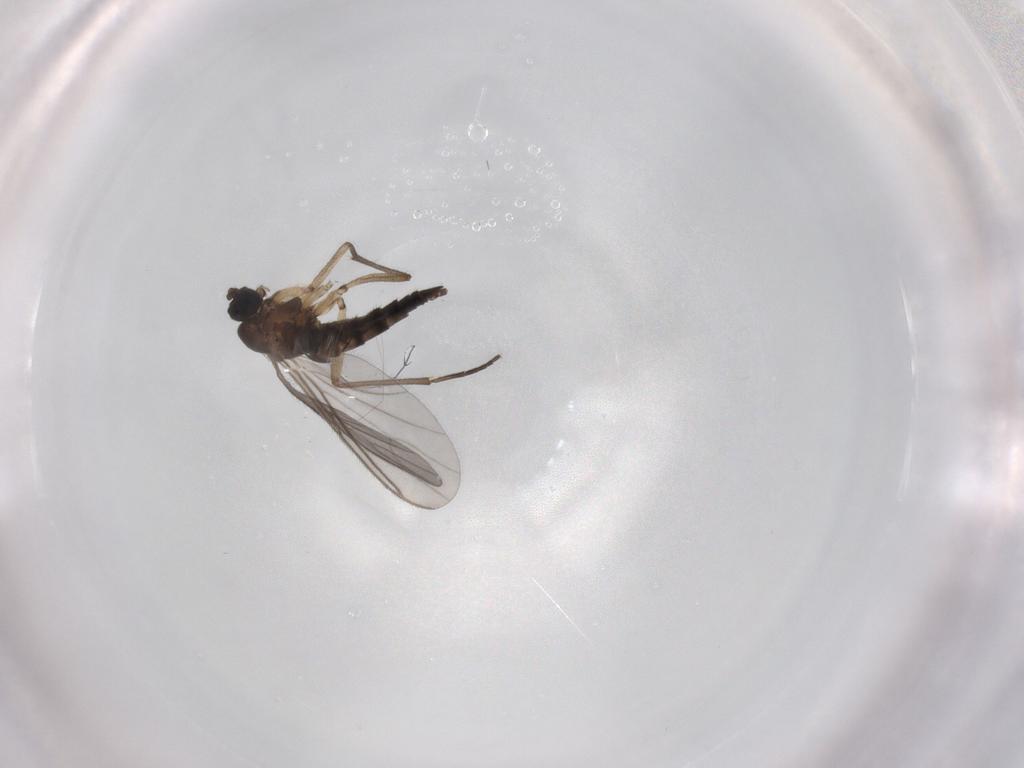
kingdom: Animalia
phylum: Arthropoda
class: Insecta
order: Diptera
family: Sciaridae
